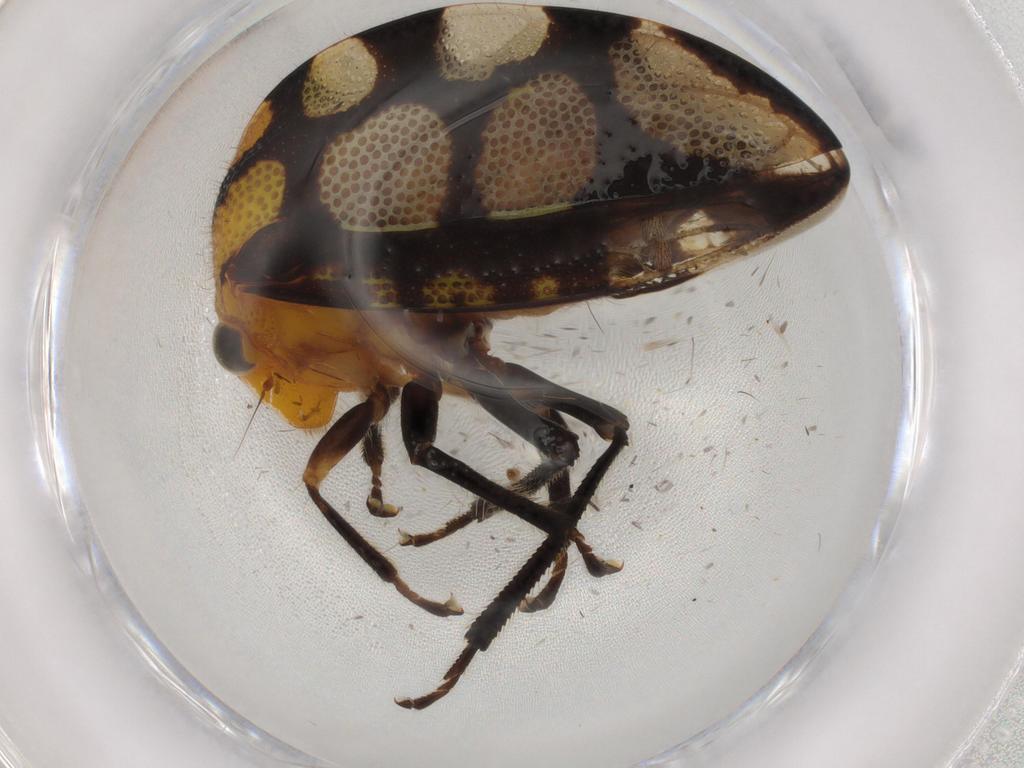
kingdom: Animalia
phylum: Arthropoda
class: Insecta
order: Hemiptera
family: Membracidae
